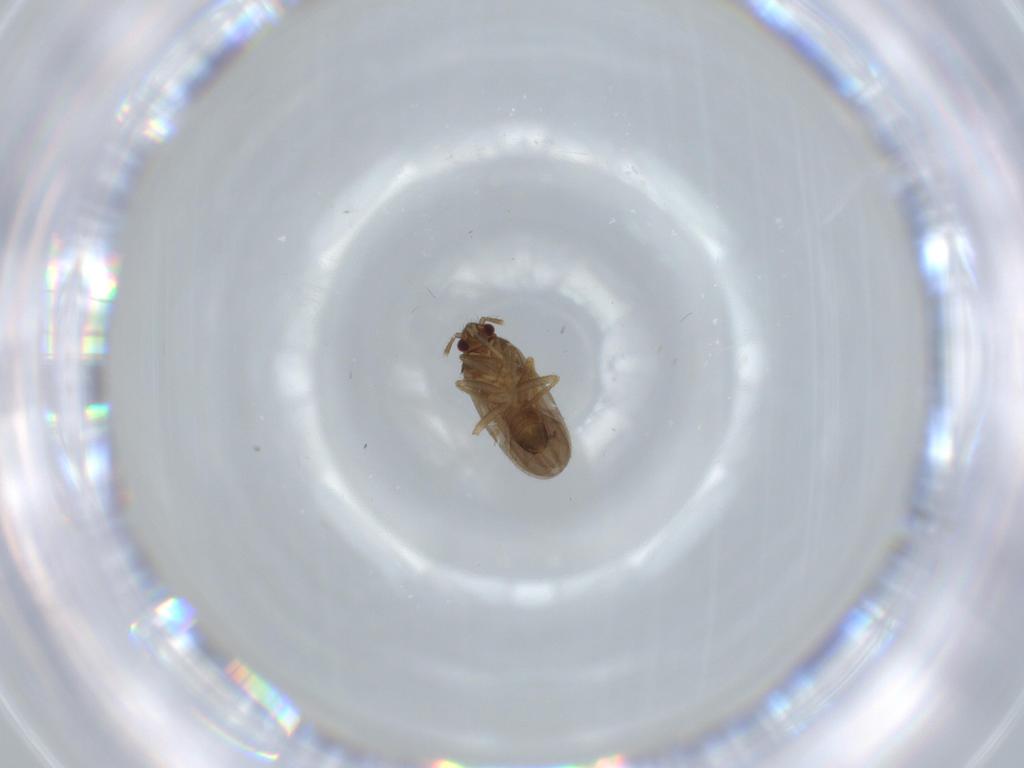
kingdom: Animalia
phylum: Arthropoda
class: Insecta
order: Hemiptera
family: Ceratocombidae
